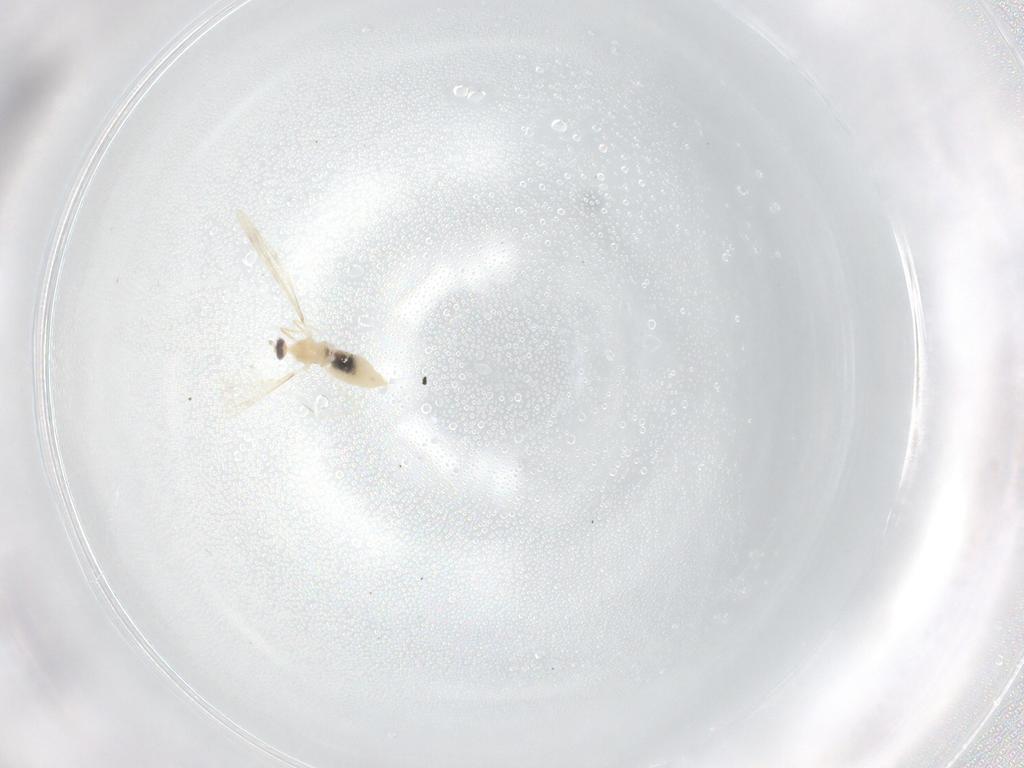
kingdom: Animalia
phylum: Arthropoda
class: Insecta
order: Diptera
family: Cecidomyiidae
